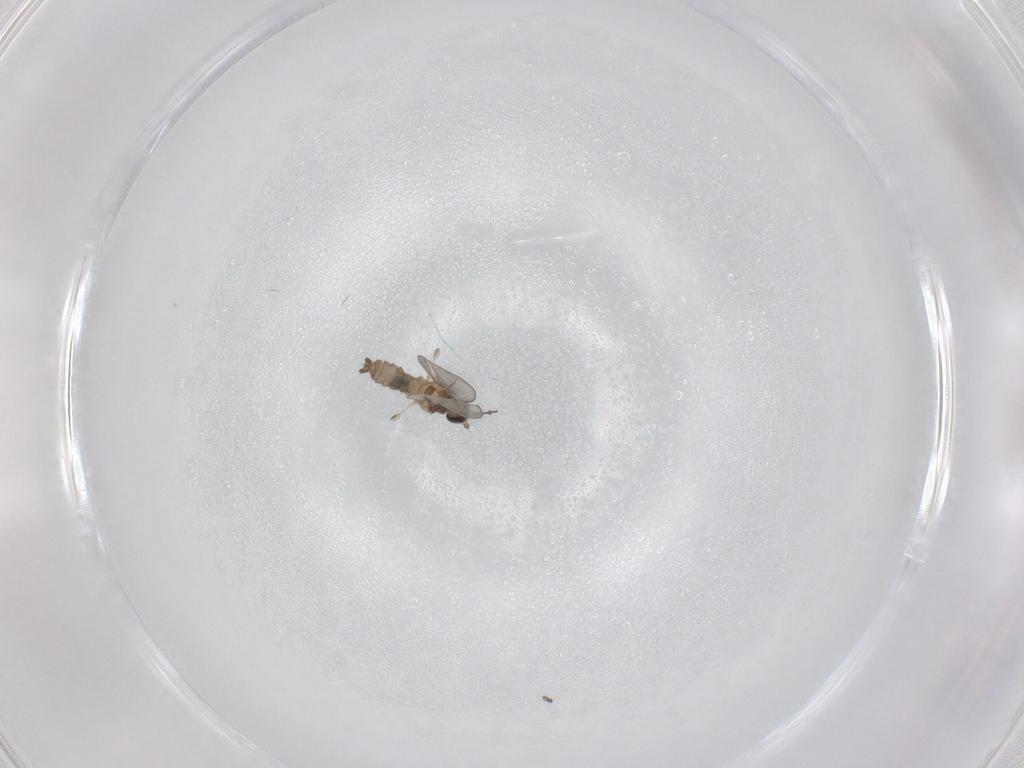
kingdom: Animalia
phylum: Arthropoda
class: Insecta
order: Diptera
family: Cecidomyiidae
